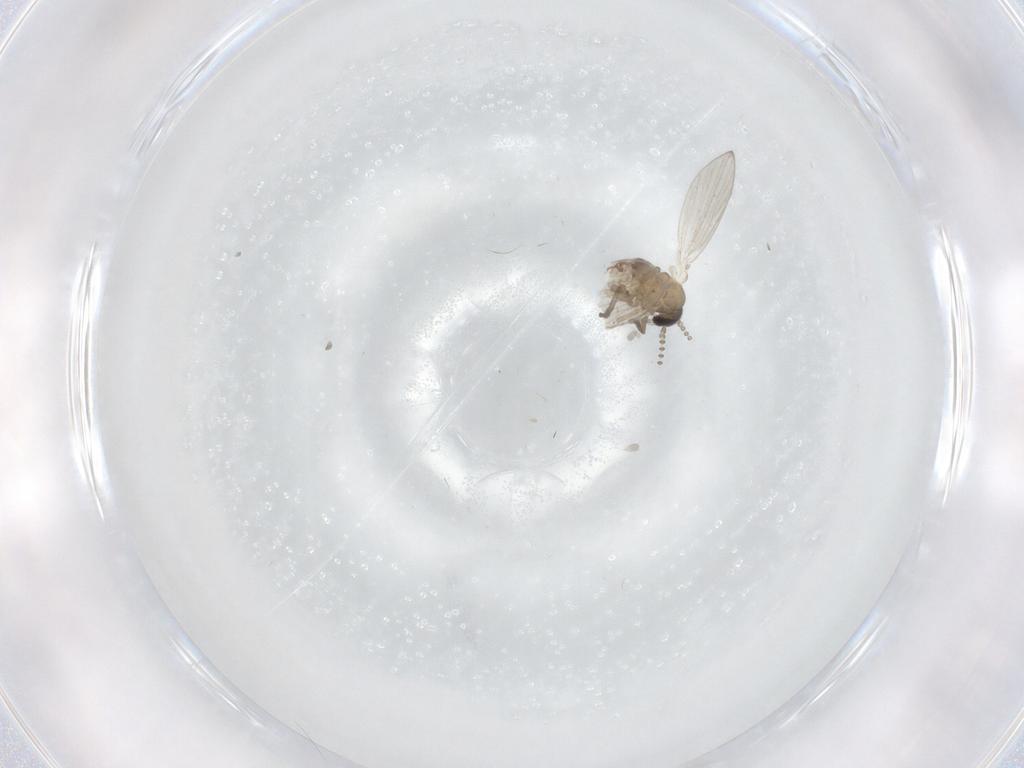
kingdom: Animalia
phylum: Arthropoda
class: Insecta
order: Diptera
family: Psychodidae
